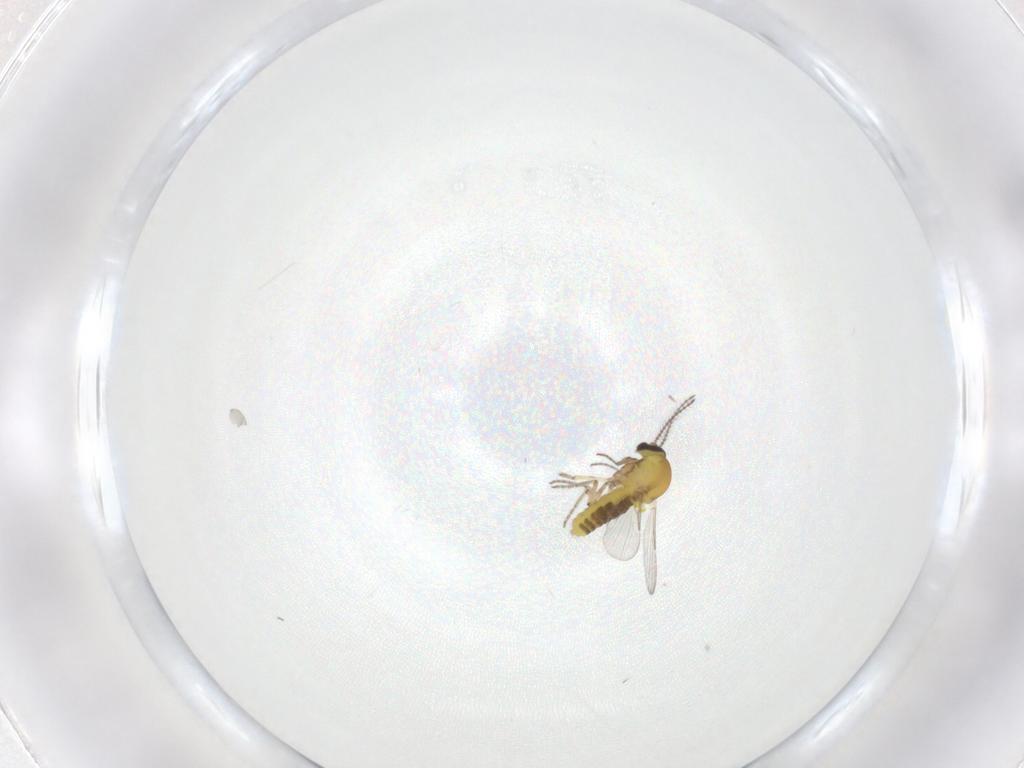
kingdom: Animalia
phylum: Arthropoda
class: Insecta
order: Diptera
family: Ceratopogonidae
